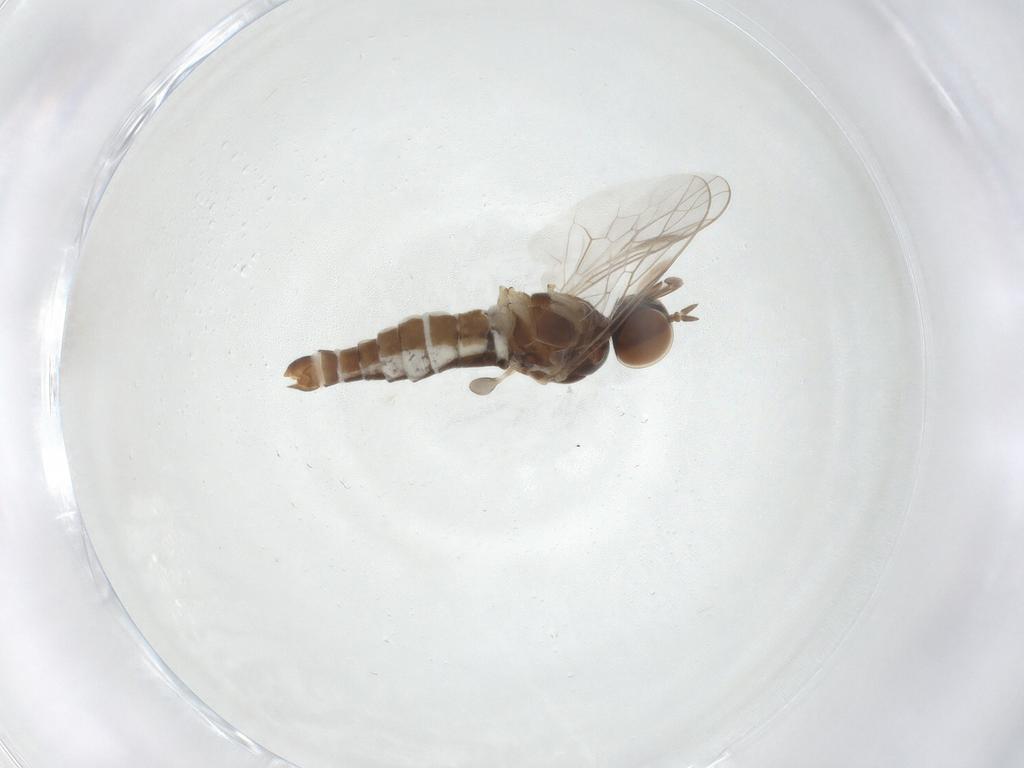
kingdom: Animalia
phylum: Arthropoda
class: Insecta
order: Diptera
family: Scenopinidae
